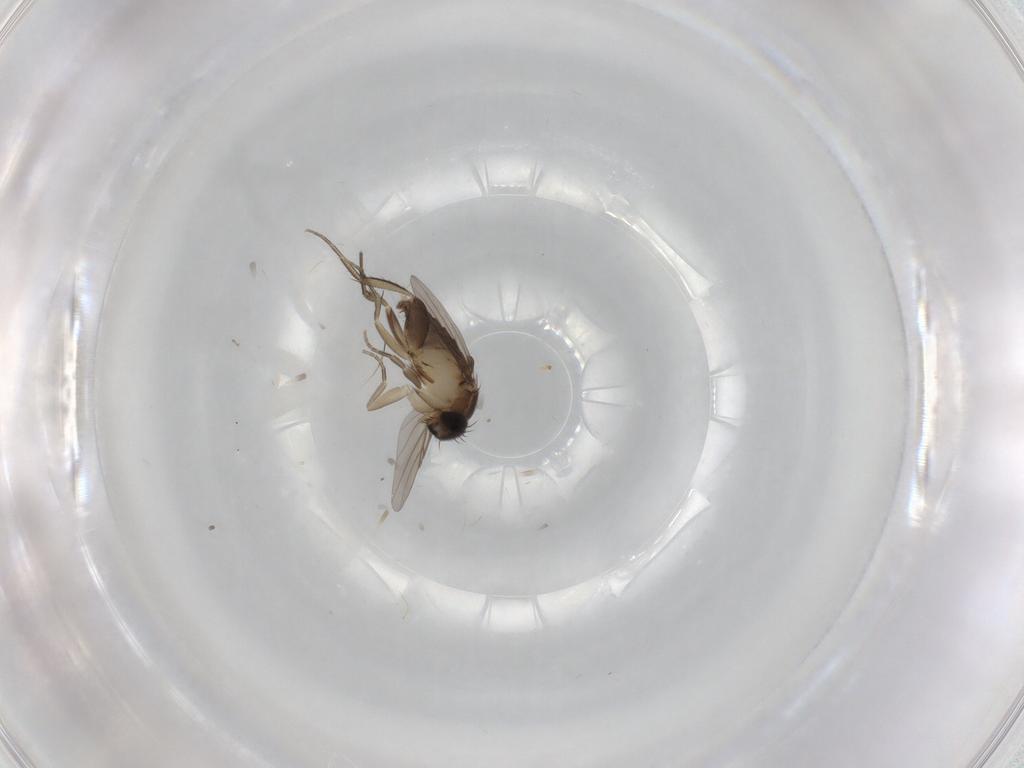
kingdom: Animalia
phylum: Arthropoda
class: Insecta
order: Diptera
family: Phoridae
